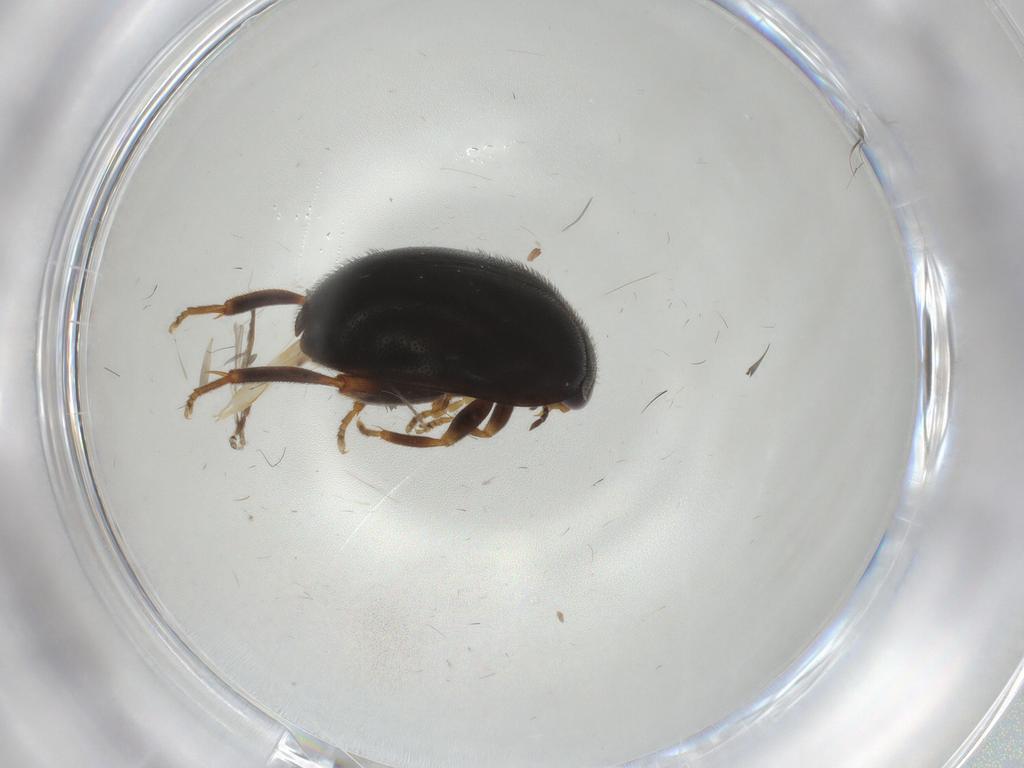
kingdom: Animalia
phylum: Arthropoda
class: Insecta
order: Coleoptera
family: Scirtidae
